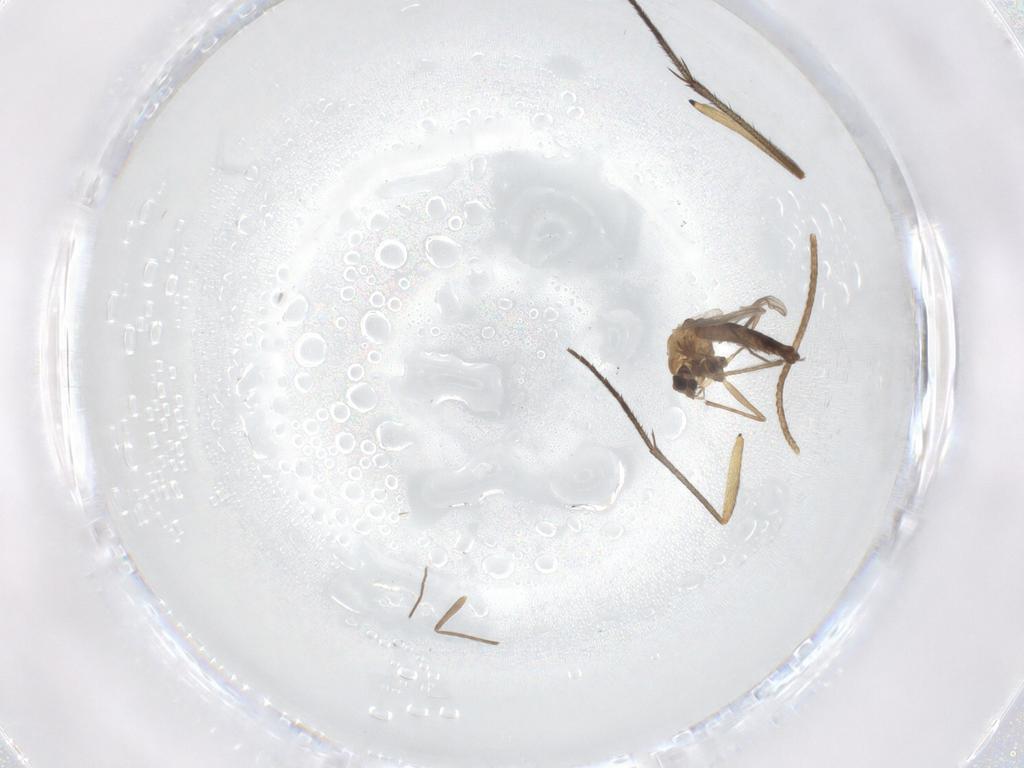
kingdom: Animalia
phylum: Arthropoda
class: Insecta
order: Diptera
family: Chironomidae
